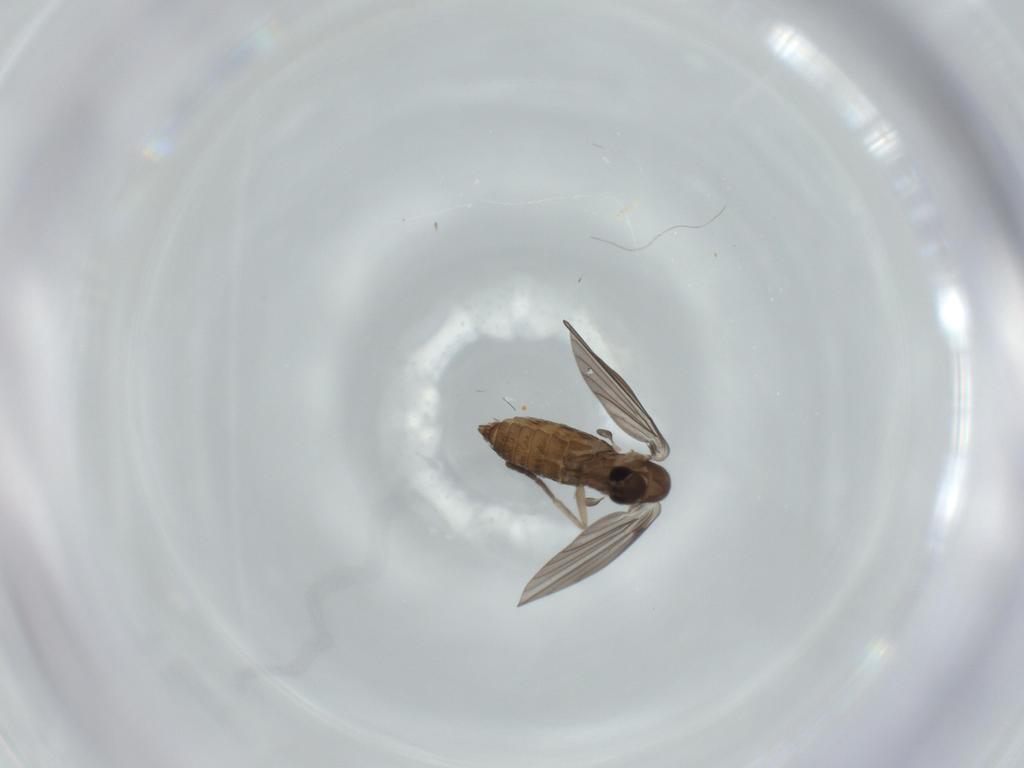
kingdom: Animalia
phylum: Arthropoda
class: Insecta
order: Diptera
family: Psychodidae
